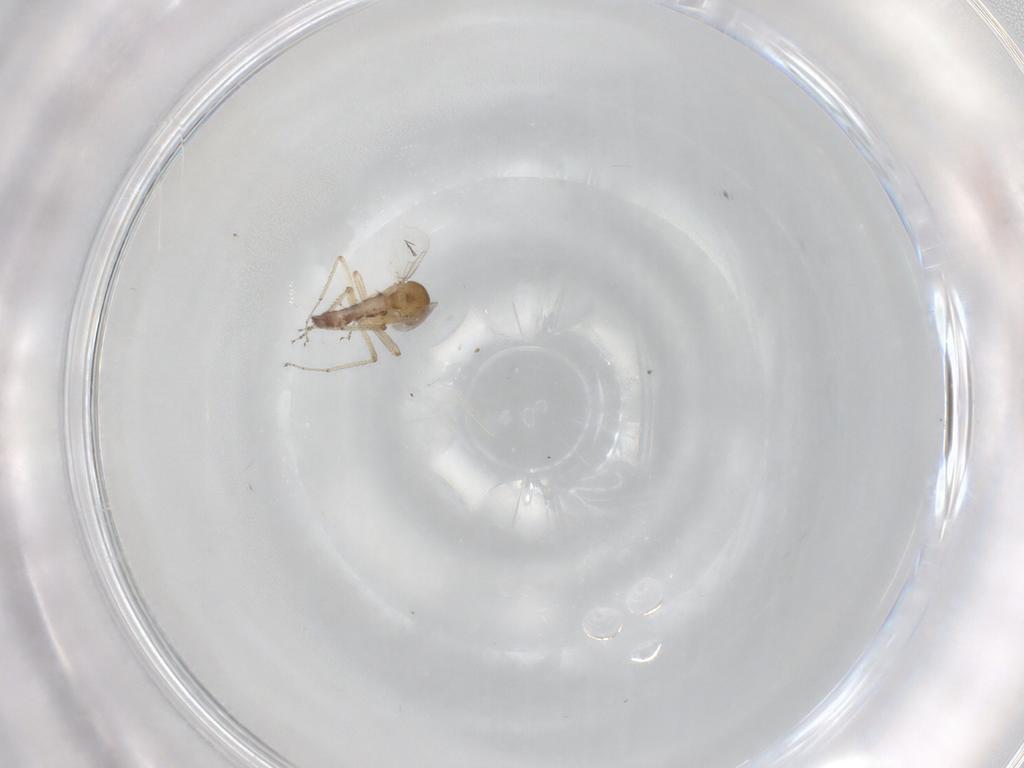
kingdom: Animalia
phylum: Arthropoda
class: Insecta
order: Diptera
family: Ceratopogonidae
